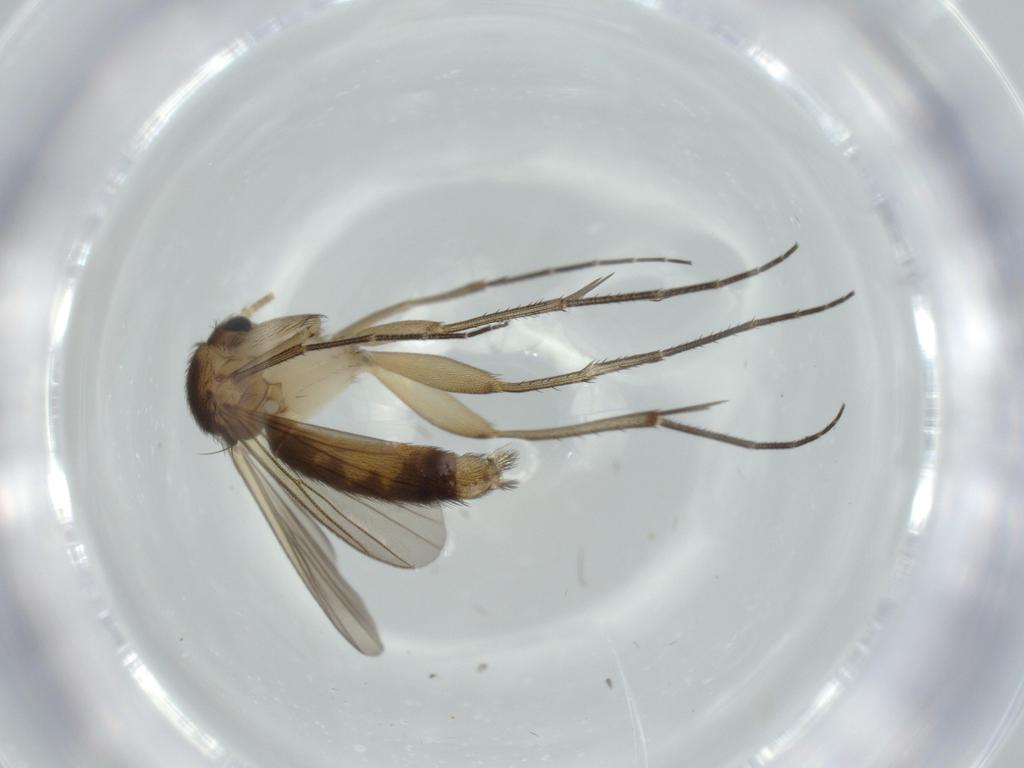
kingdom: Animalia
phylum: Arthropoda
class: Insecta
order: Diptera
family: Mycetophilidae
